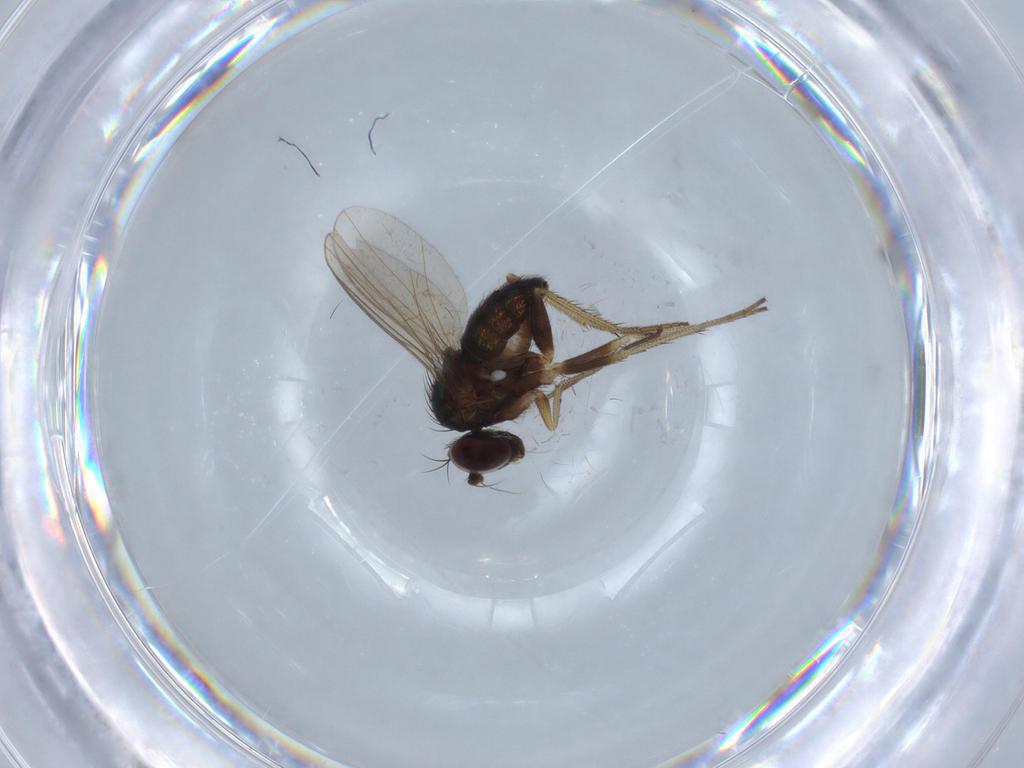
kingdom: Animalia
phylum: Arthropoda
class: Insecta
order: Diptera
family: Chironomidae
